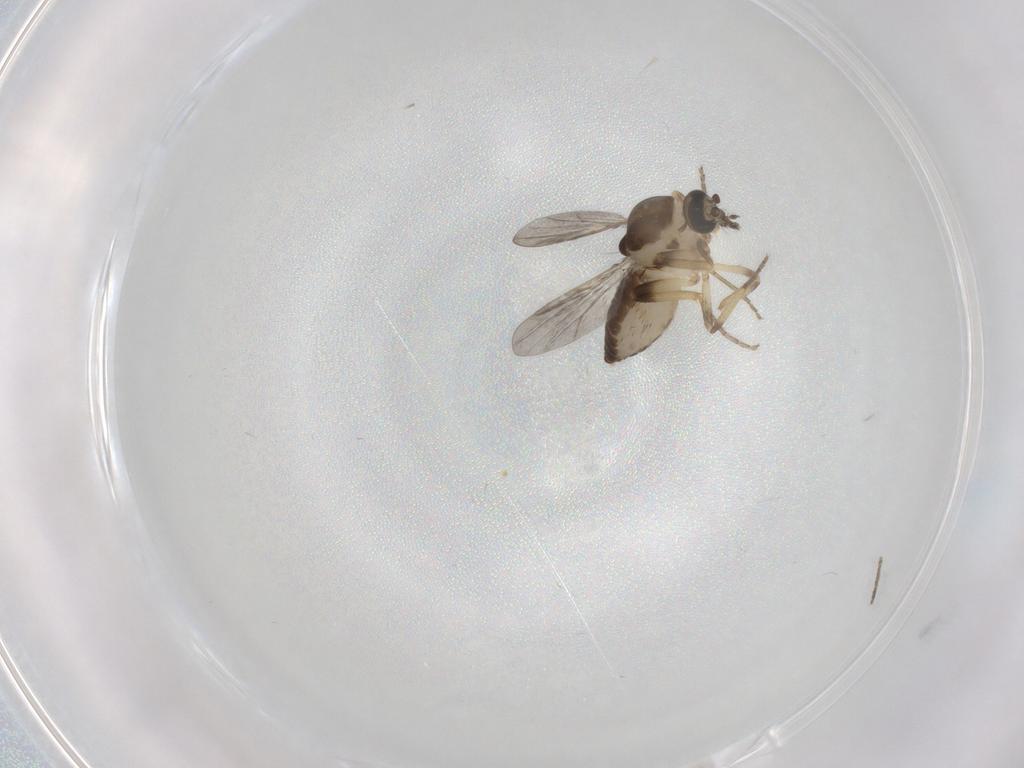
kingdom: Animalia
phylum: Arthropoda
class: Insecta
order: Diptera
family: Ceratopogonidae
